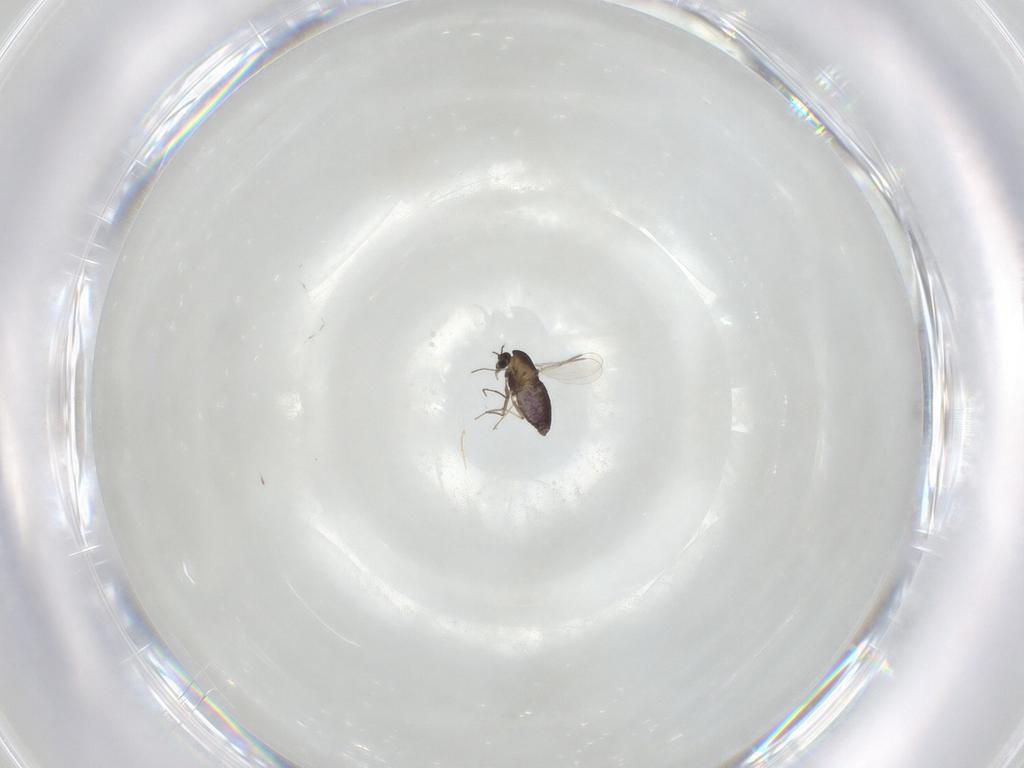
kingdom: Animalia
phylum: Arthropoda
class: Insecta
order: Diptera
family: Chironomidae
